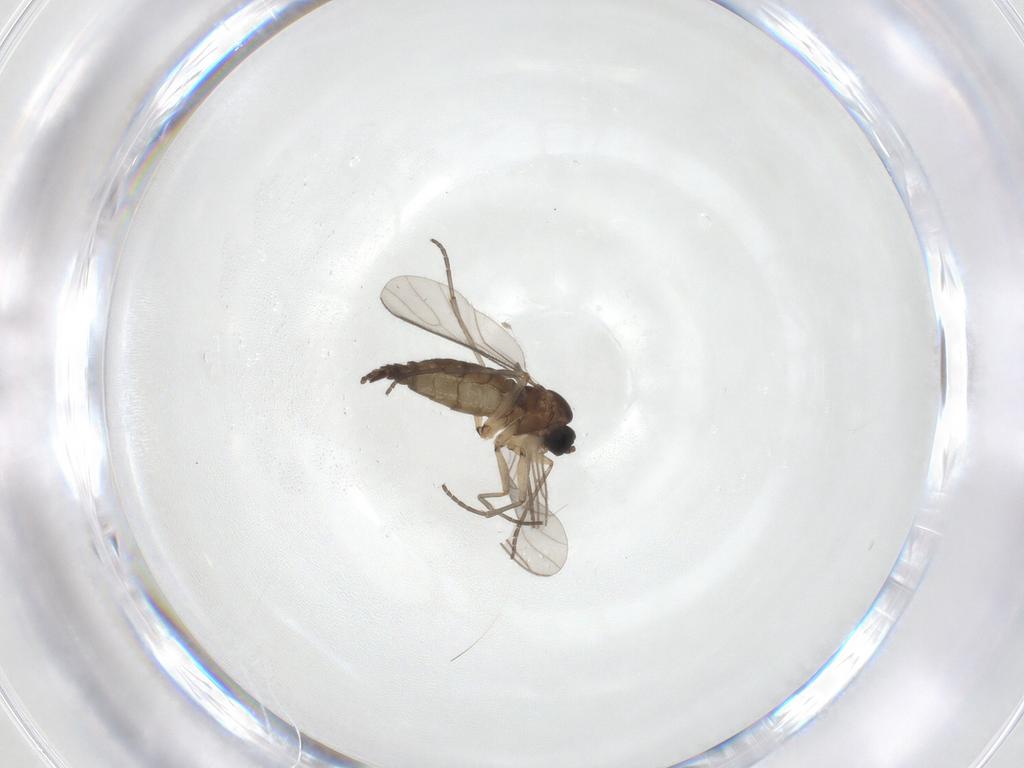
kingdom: Animalia
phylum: Arthropoda
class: Insecta
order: Diptera
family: Sciaridae
